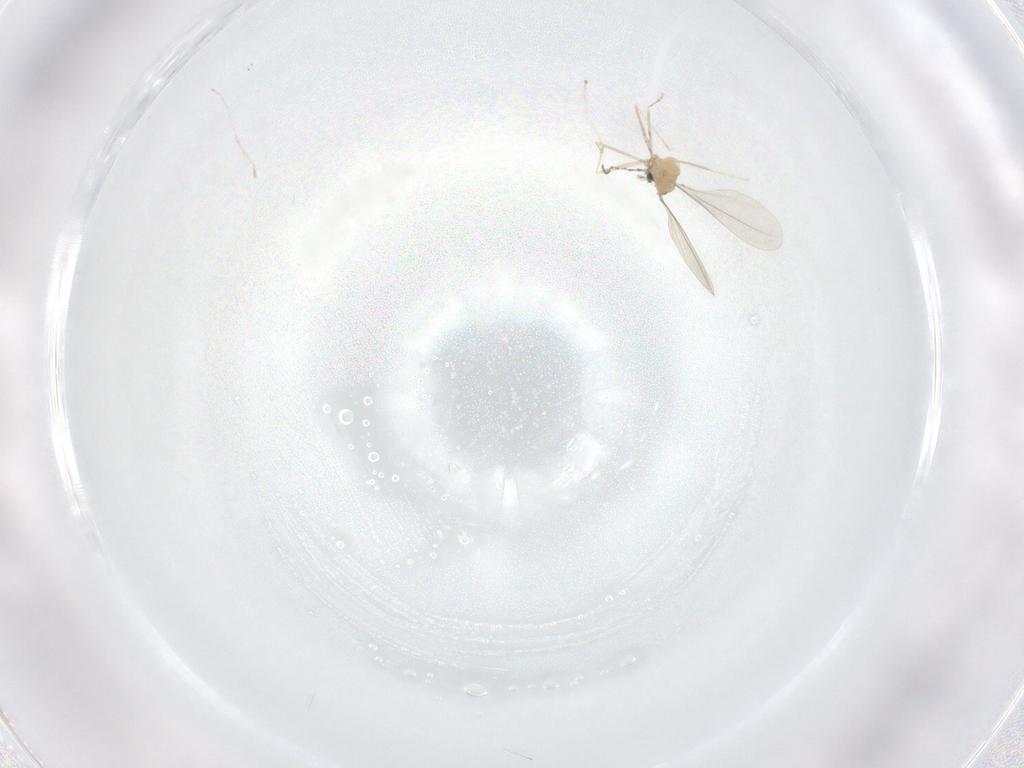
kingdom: Animalia
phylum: Arthropoda
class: Insecta
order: Diptera
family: Cecidomyiidae
